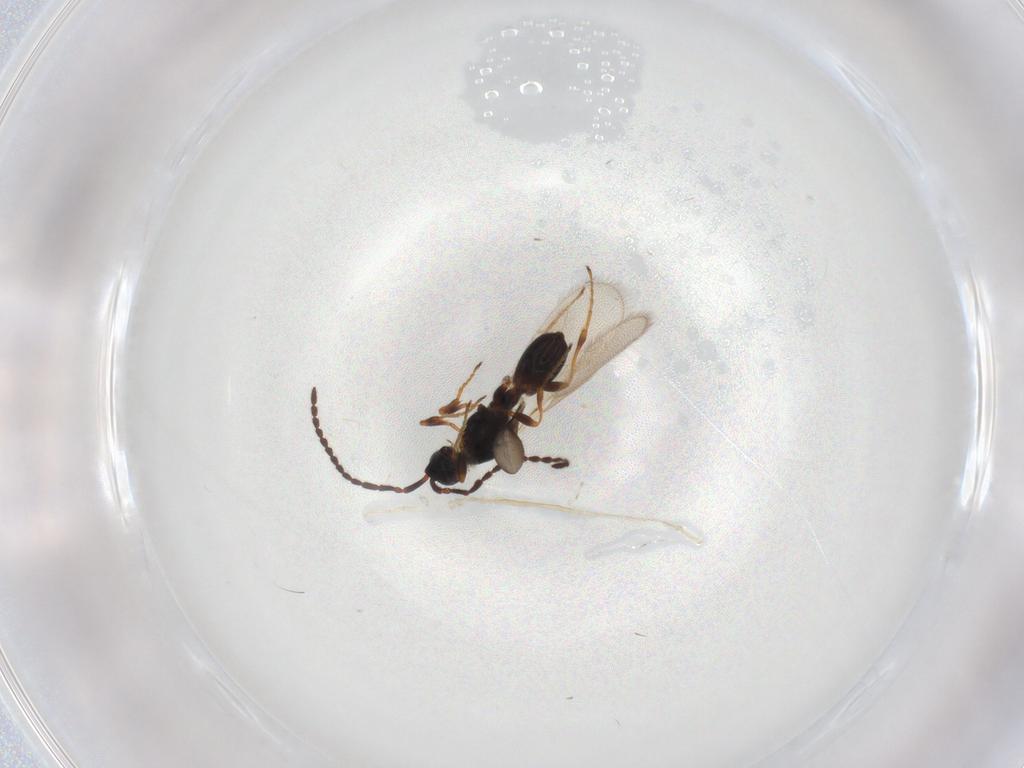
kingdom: Animalia
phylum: Arthropoda
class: Insecta
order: Hymenoptera
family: Diapriidae
